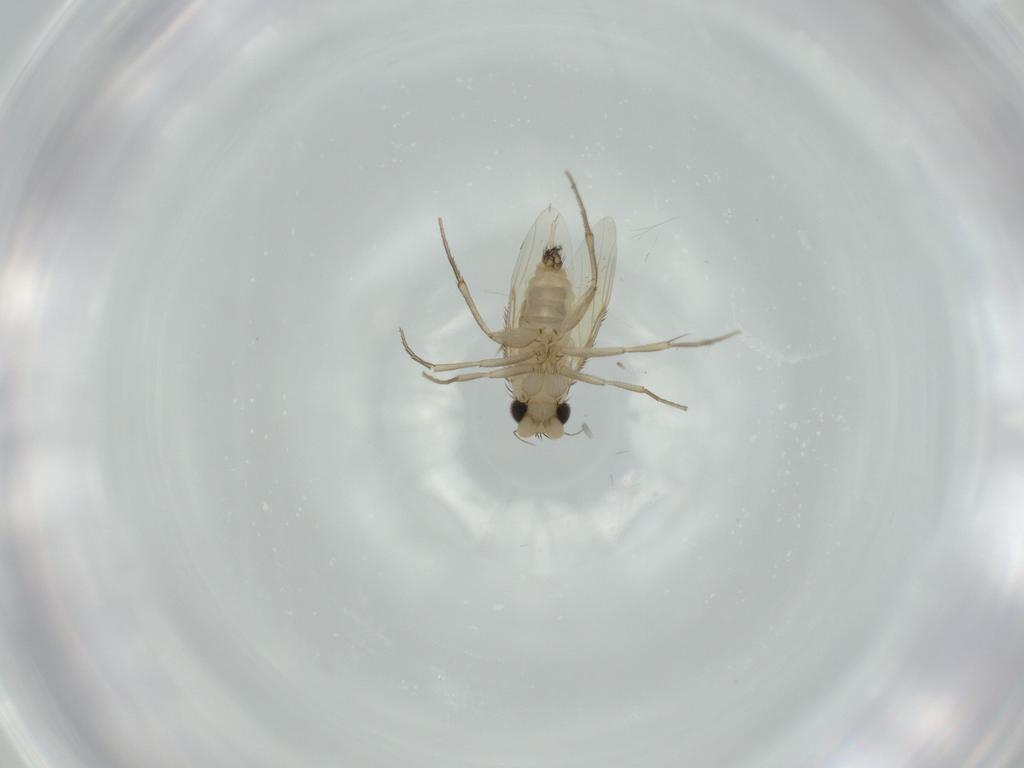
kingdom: Animalia
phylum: Arthropoda
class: Insecta
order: Diptera
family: Phoridae
